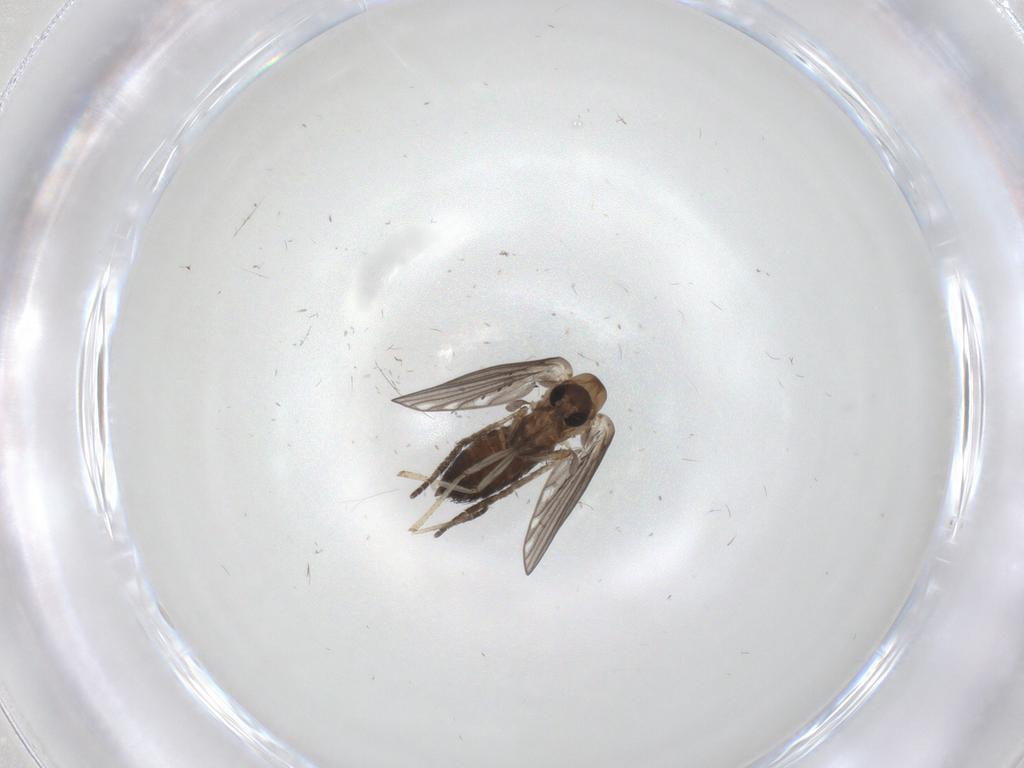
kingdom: Animalia
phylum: Arthropoda
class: Insecta
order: Diptera
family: Psychodidae
